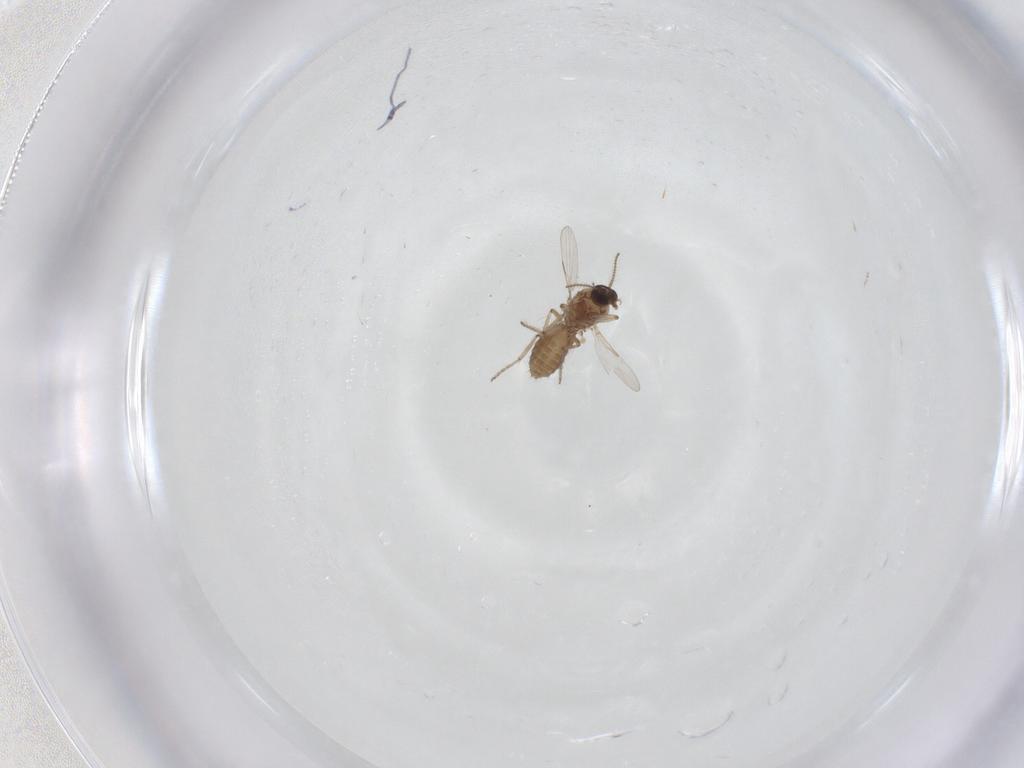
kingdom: Animalia
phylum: Arthropoda
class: Insecta
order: Diptera
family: Ceratopogonidae
